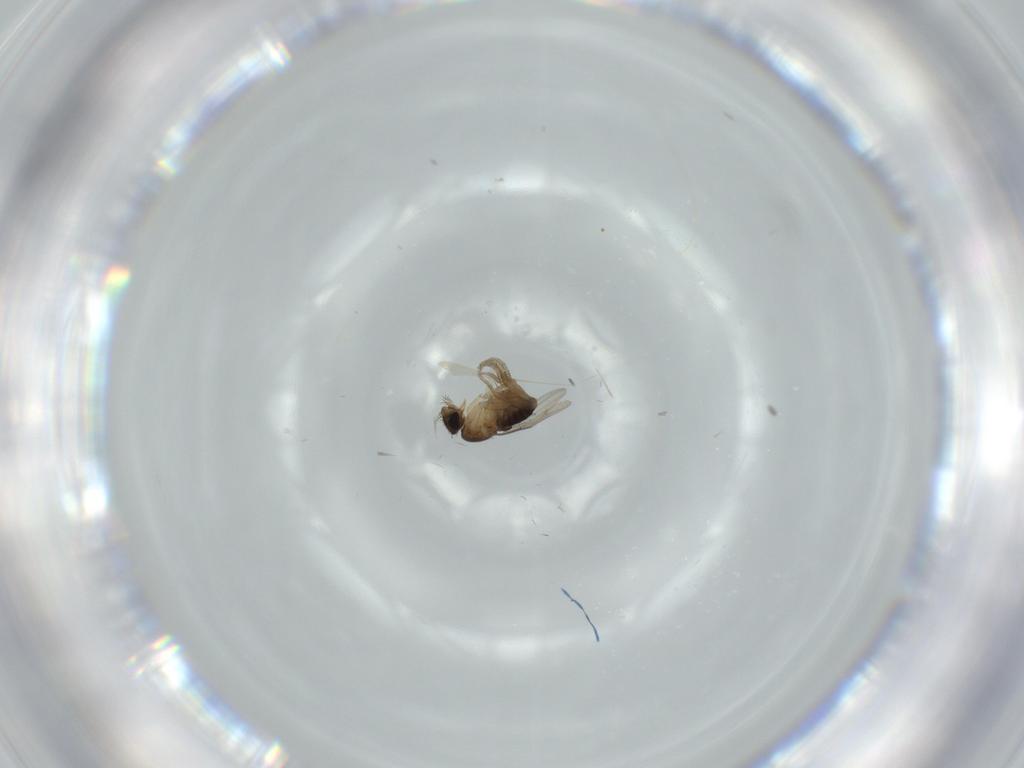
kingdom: Animalia
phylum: Arthropoda
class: Insecta
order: Diptera
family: Phoridae
